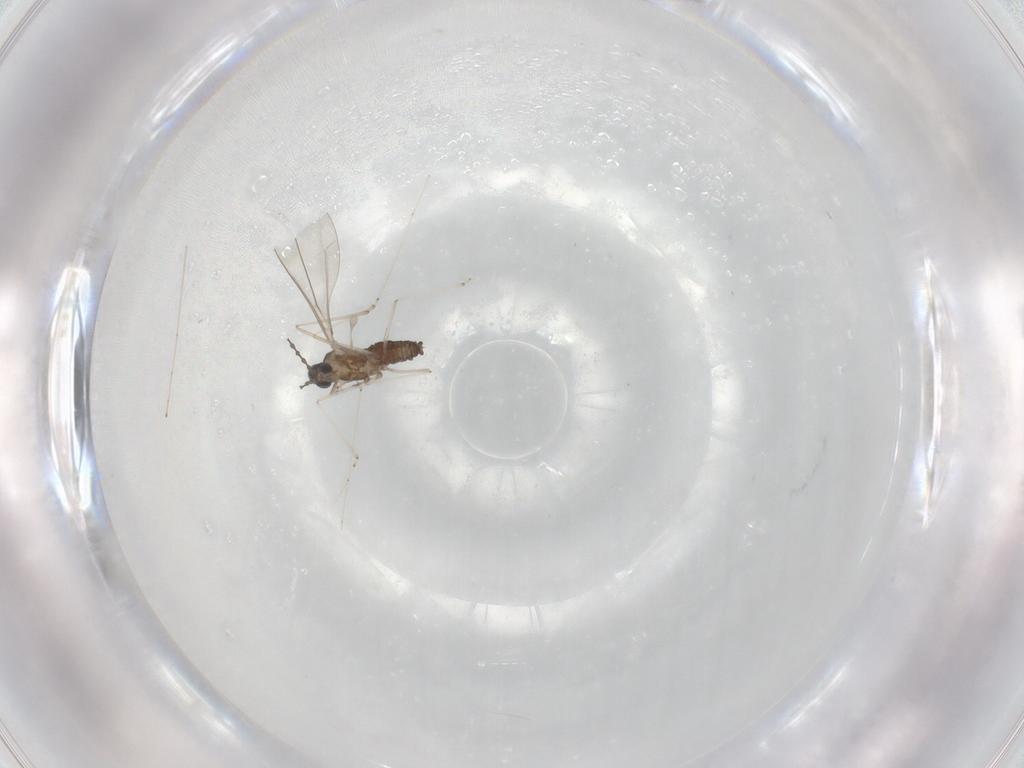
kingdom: Animalia
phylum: Arthropoda
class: Insecta
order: Diptera
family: Cecidomyiidae
